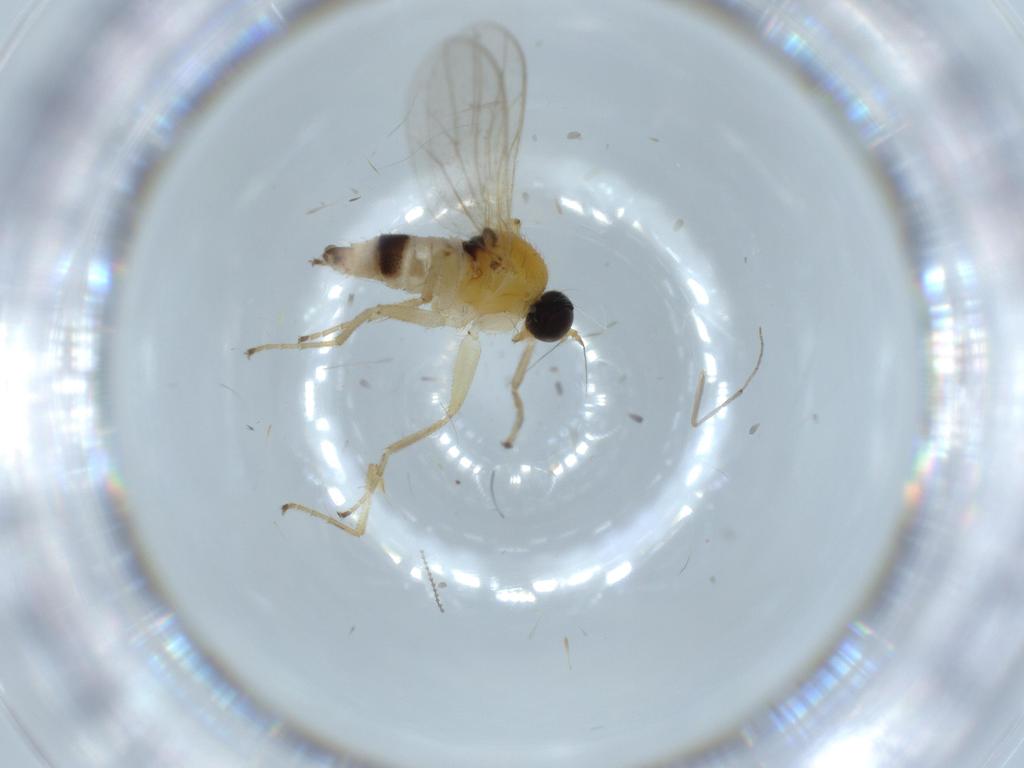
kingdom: Animalia
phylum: Arthropoda
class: Insecta
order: Diptera
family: Hybotidae
